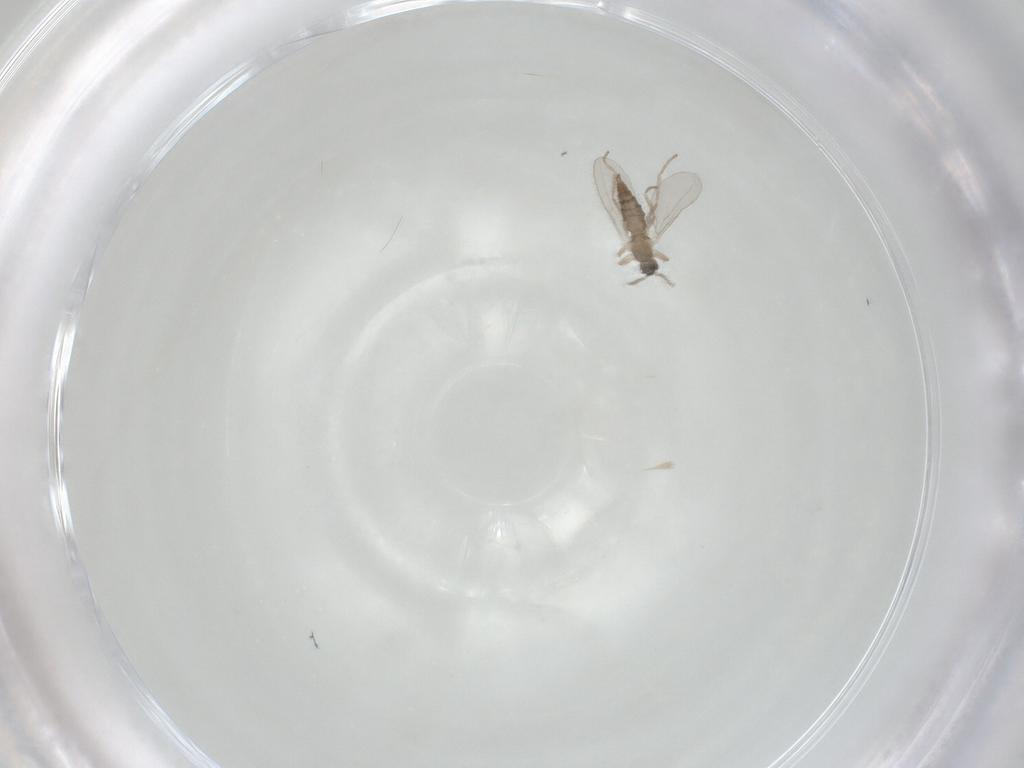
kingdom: Animalia
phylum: Arthropoda
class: Insecta
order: Diptera
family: Cecidomyiidae
